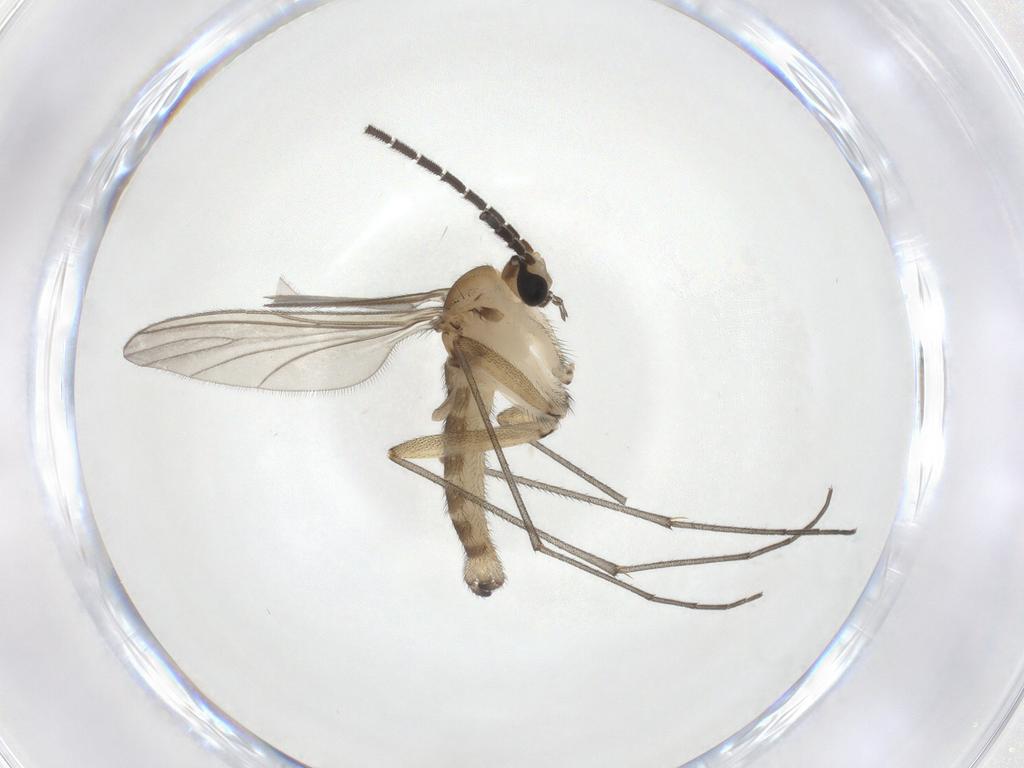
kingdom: Animalia
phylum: Arthropoda
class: Insecta
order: Diptera
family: Sciaridae
